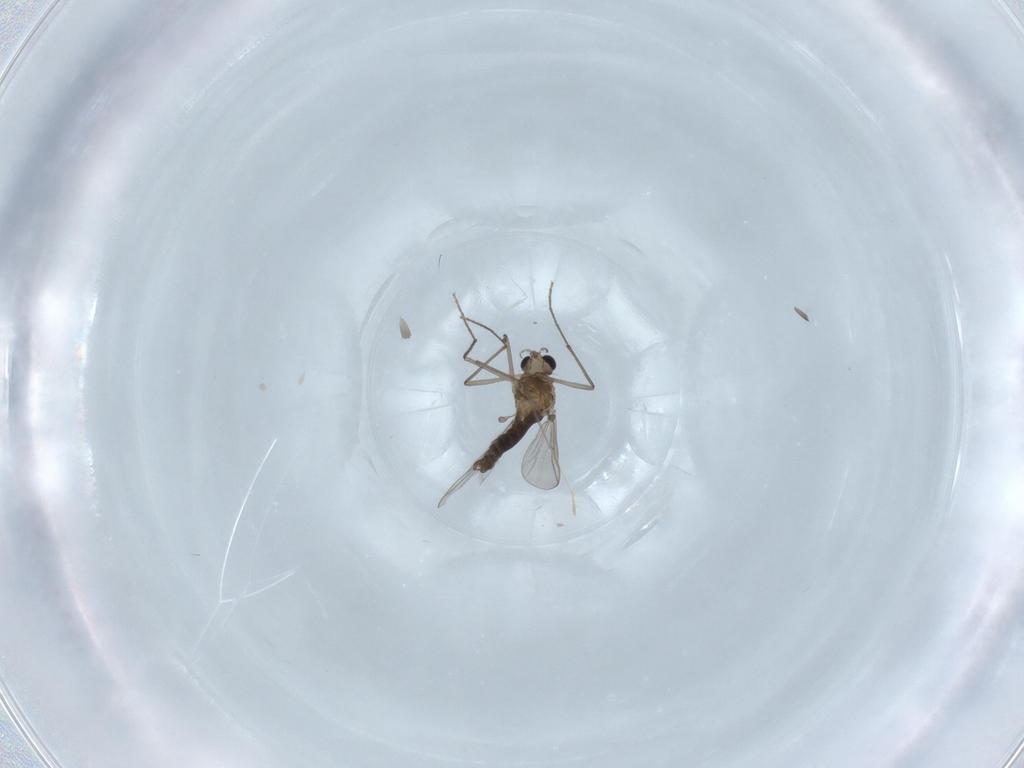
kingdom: Animalia
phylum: Arthropoda
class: Insecta
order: Diptera
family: Chironomidae
